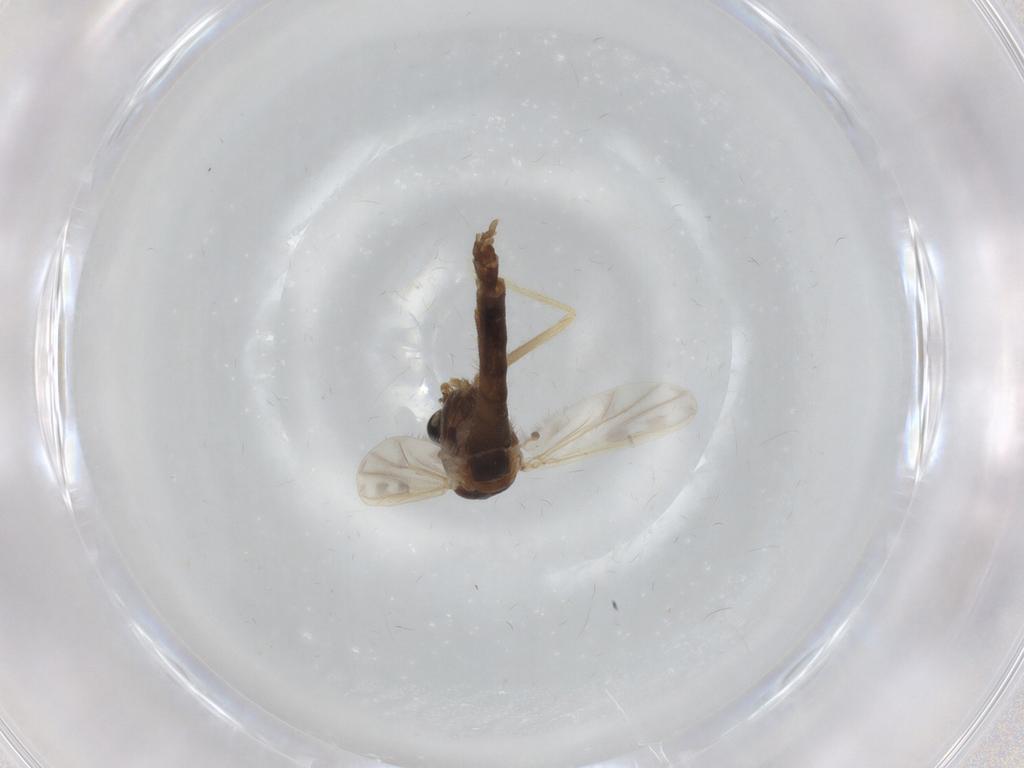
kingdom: Animalia
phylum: Arthropoda
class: Insecta
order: Diptera
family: Chironomidae
